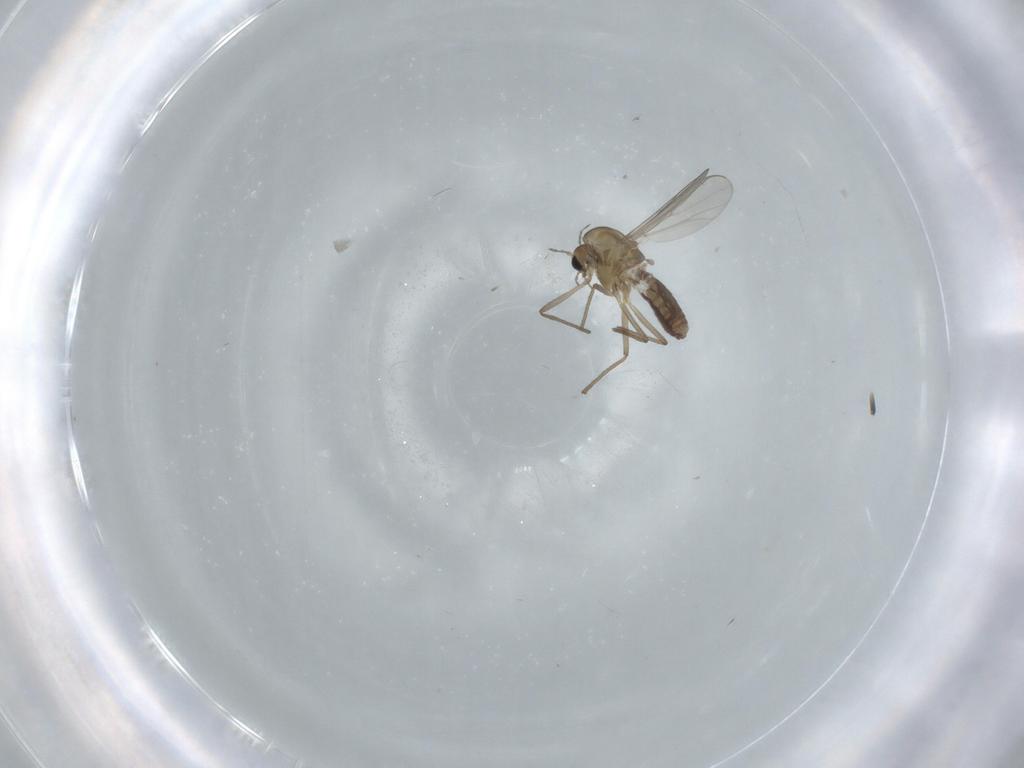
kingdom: Animalia
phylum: Arthropoda
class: Insecta
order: Diptera
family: Chironomidae
